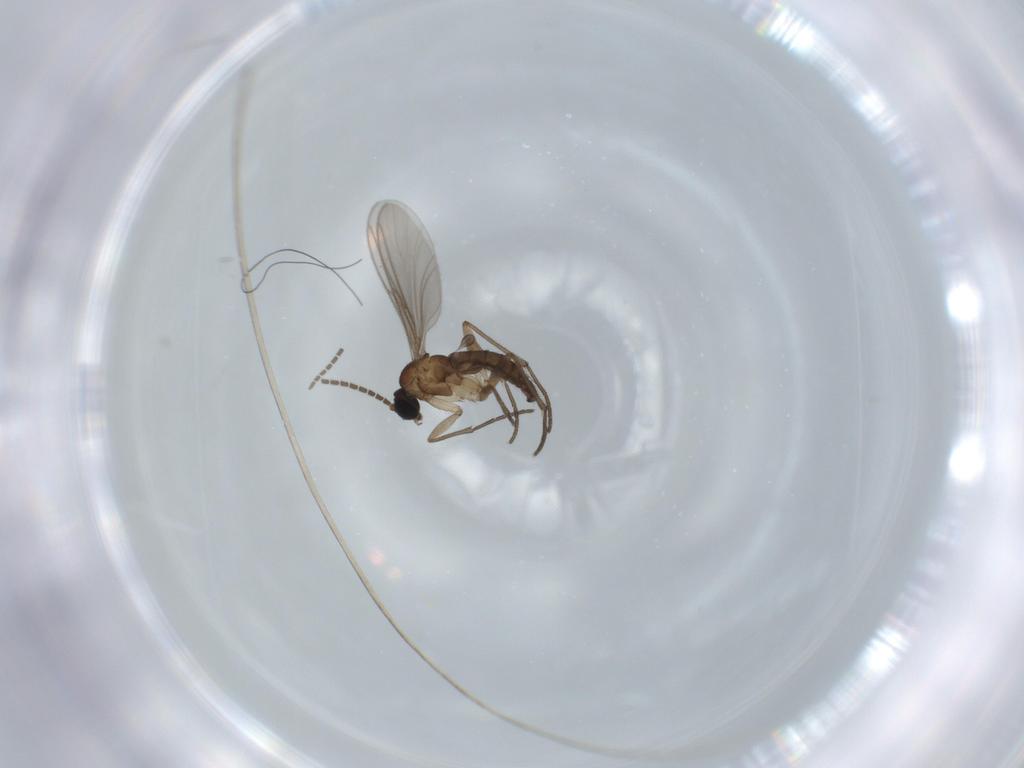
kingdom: Animalia
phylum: Arthropoda
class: Insecta
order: Diptera
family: Sciaridae
